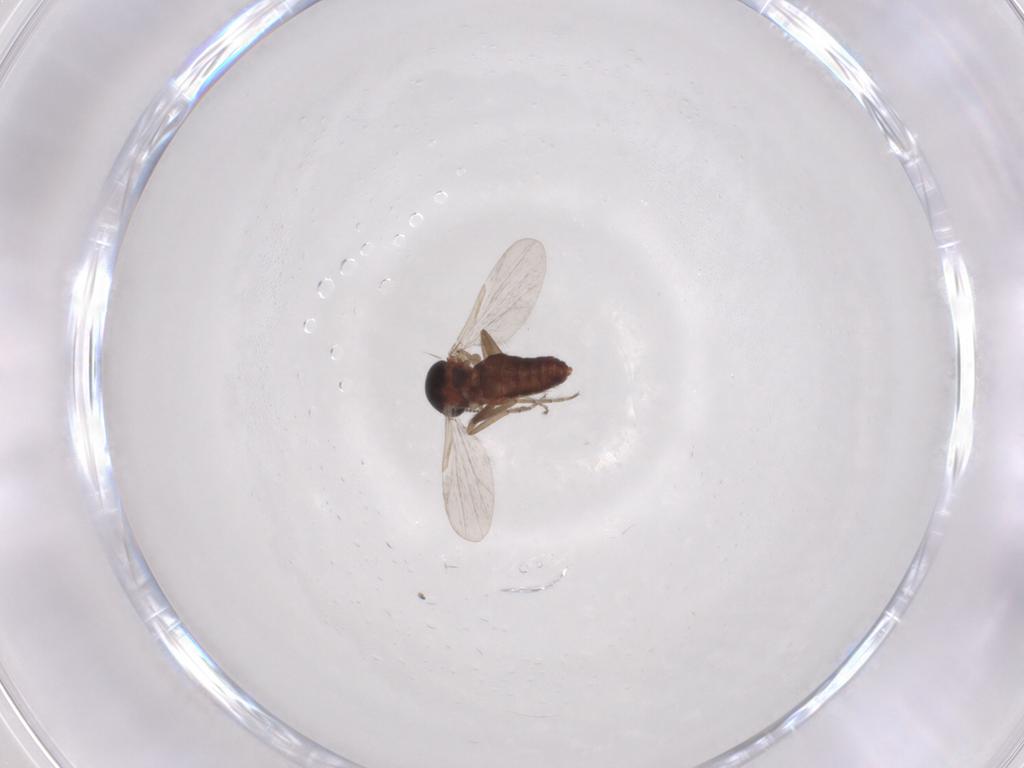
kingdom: Animalia
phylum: Arthropoda
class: Insecta
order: Diptera
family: Ceratopogonidae
